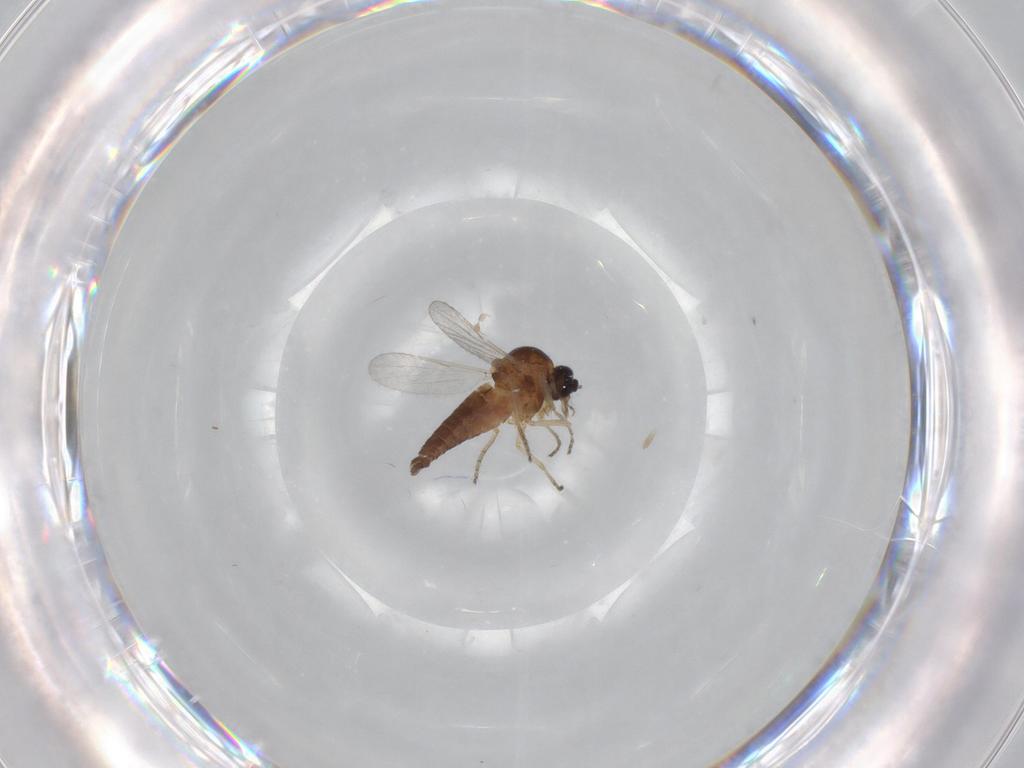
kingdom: Animalia
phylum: Arthropoda
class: Insecta
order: Diptera
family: Ceratopogonidae
